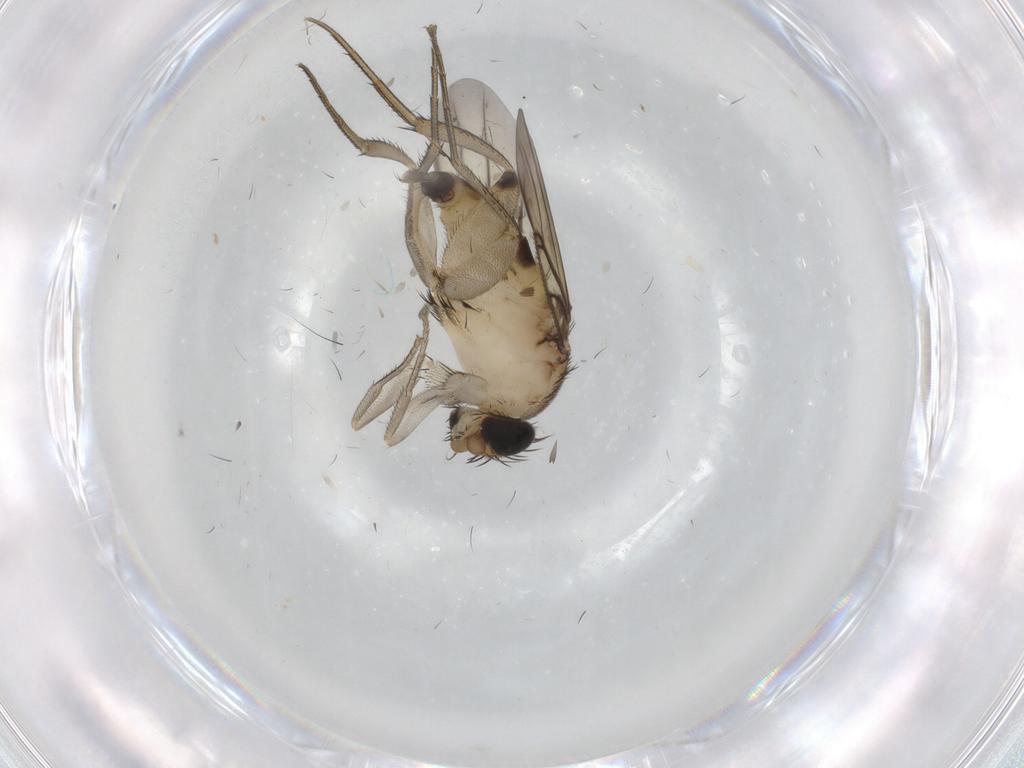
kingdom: Animalia
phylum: Arthropoda
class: Insecta
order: Diptera
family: Phoridae
